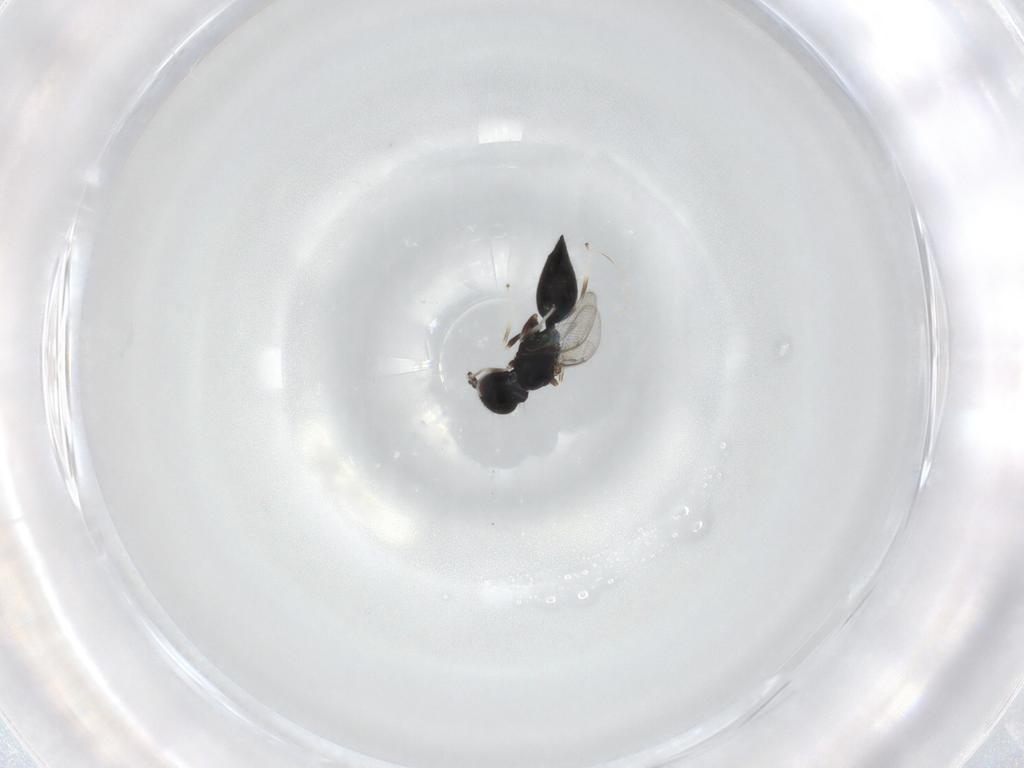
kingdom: Animalia
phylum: Arthropoda
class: Insecta
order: Hymenoptera
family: Eulophidae
